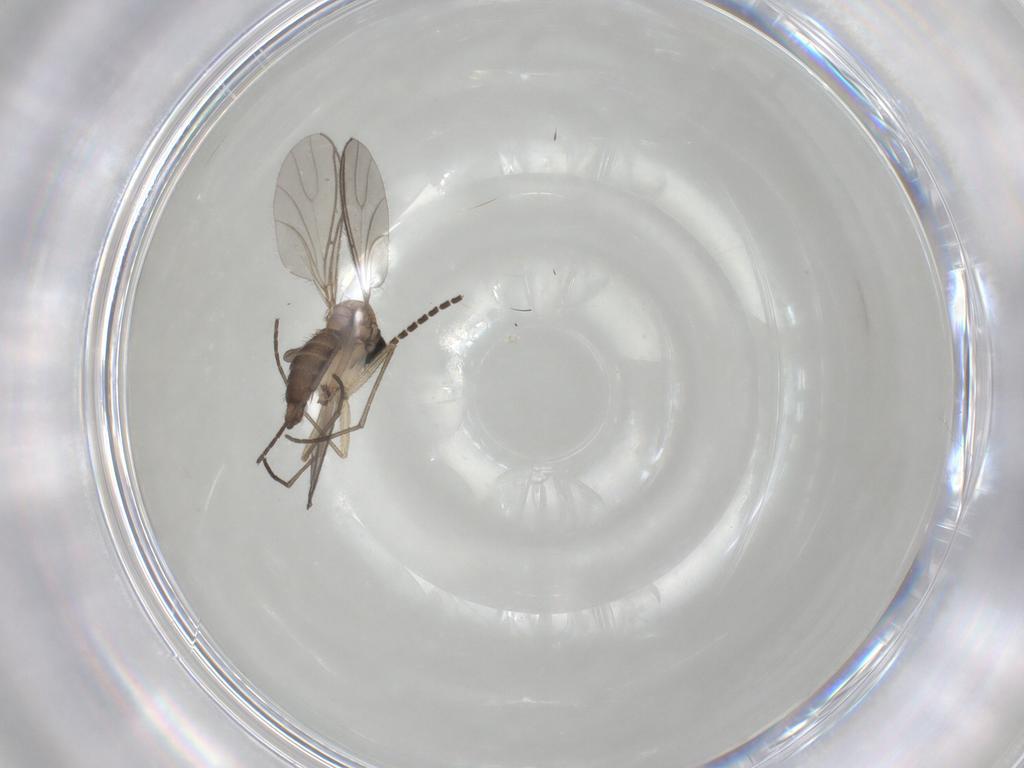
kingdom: Animalia
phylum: Arthropoda
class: Insecta
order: Diptera
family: Sciaridae
